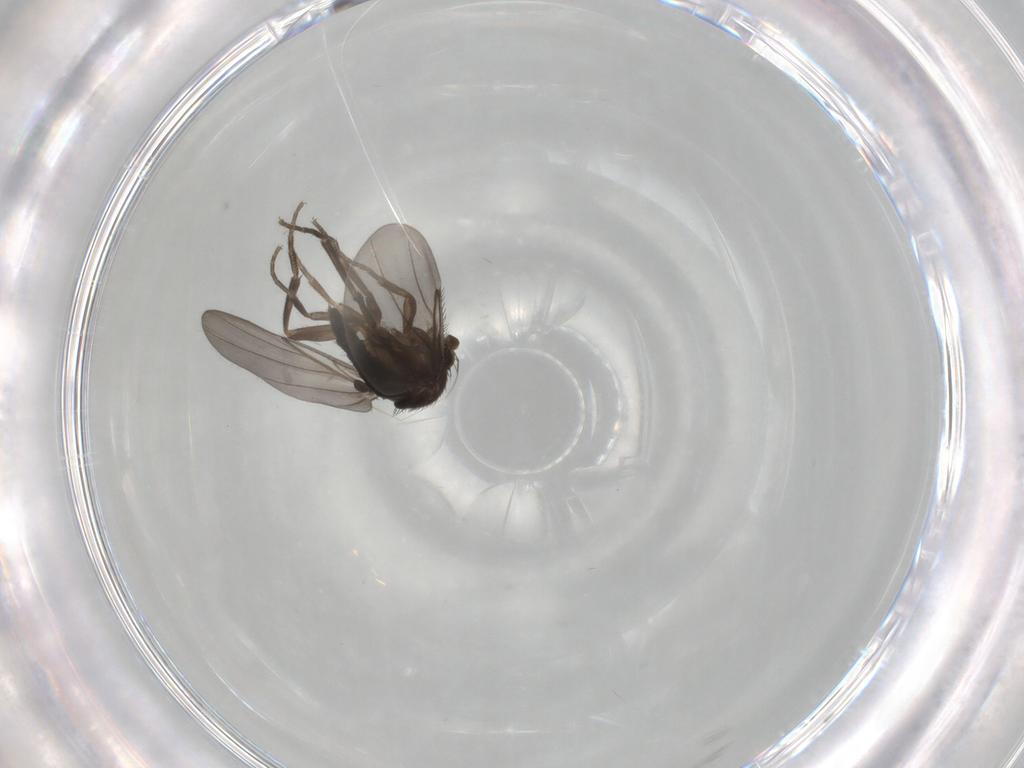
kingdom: Animalia
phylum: Arthropoda
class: Insecta
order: Diptera
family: Phoridae
